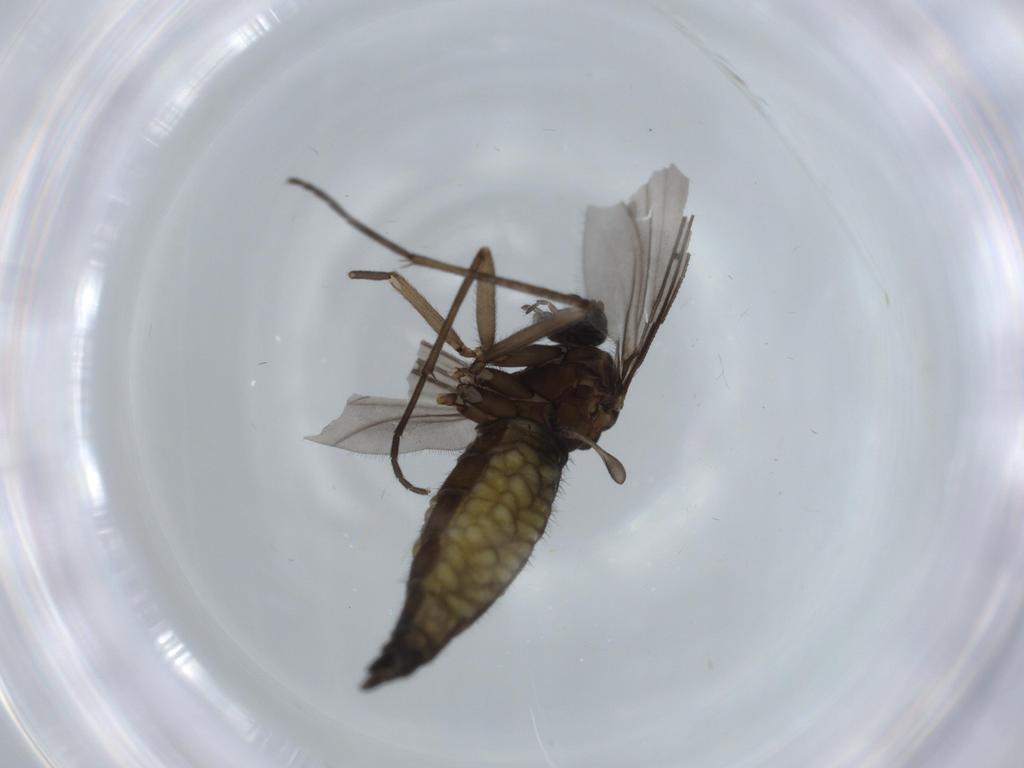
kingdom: Animalia
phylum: Arthropoda
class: Insecta
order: Diptera
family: Sciaridae
